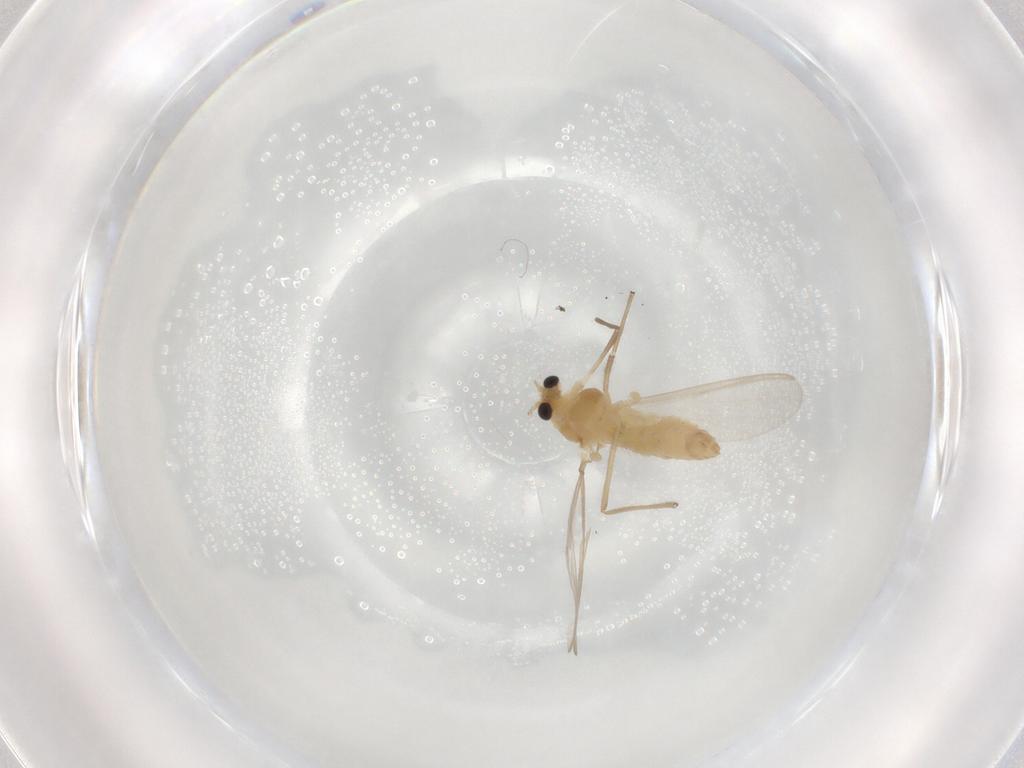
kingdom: Animalia
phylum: Arthropoda
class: Insecta
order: Diptera
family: Chironomidae
